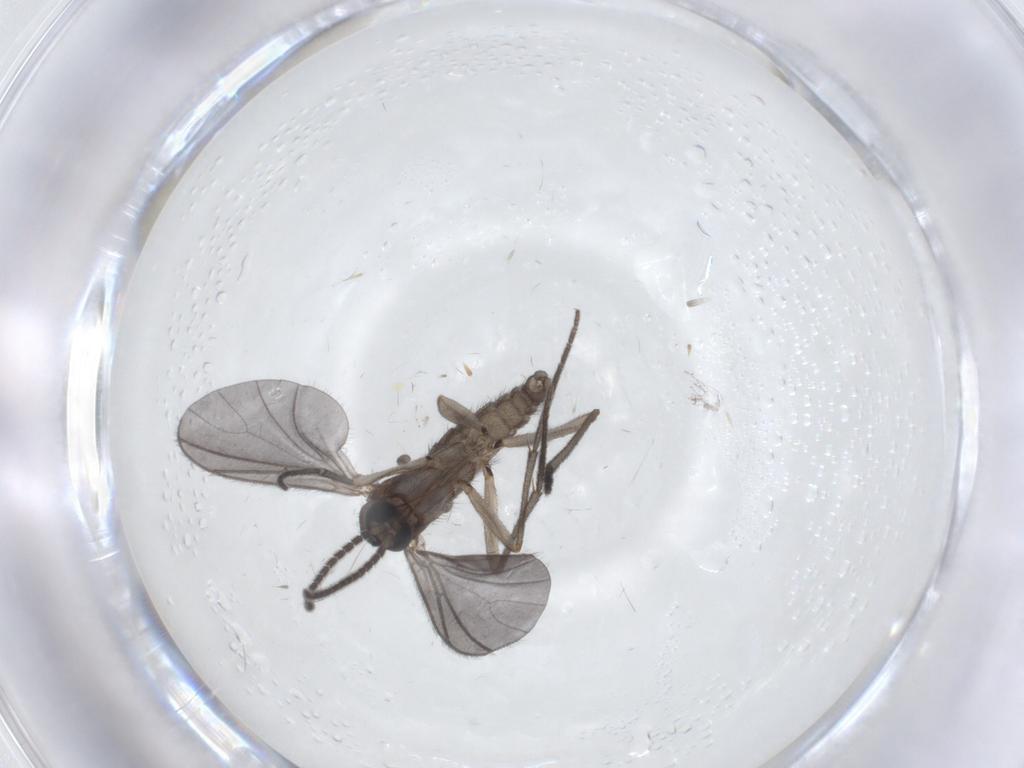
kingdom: Animalia
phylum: Arthropoda
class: Insecta
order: Diptera
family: Sciaridae
